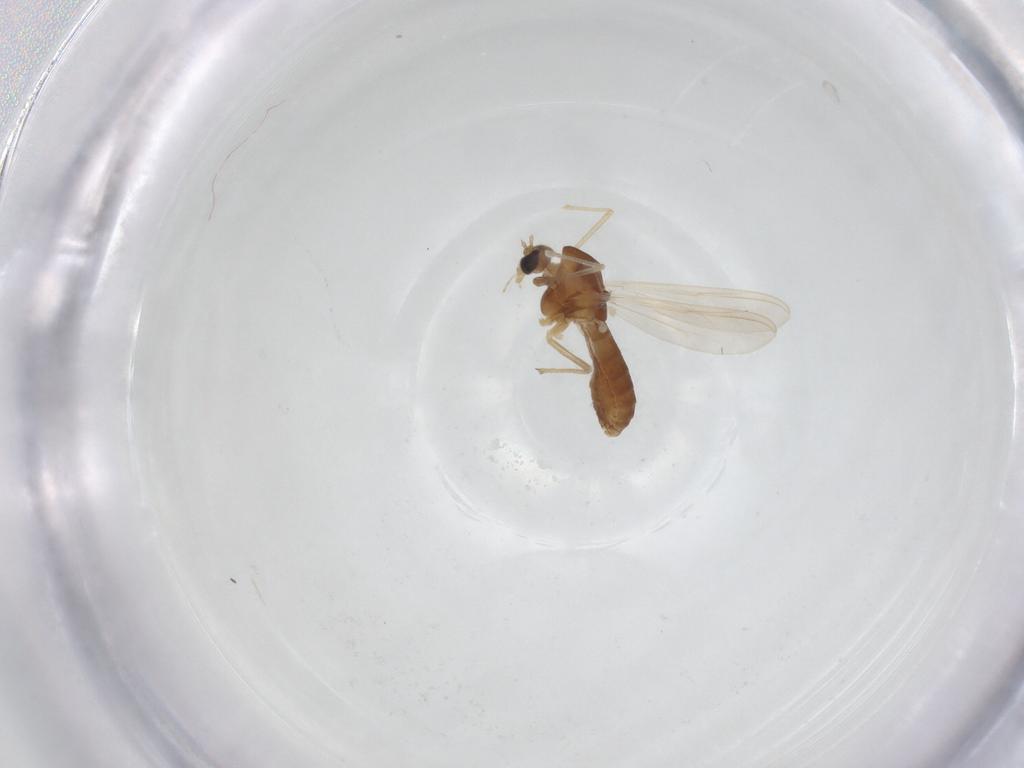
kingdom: Animalia
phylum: Arthropoda
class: Insecta
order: Diptera
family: Chironomidae
